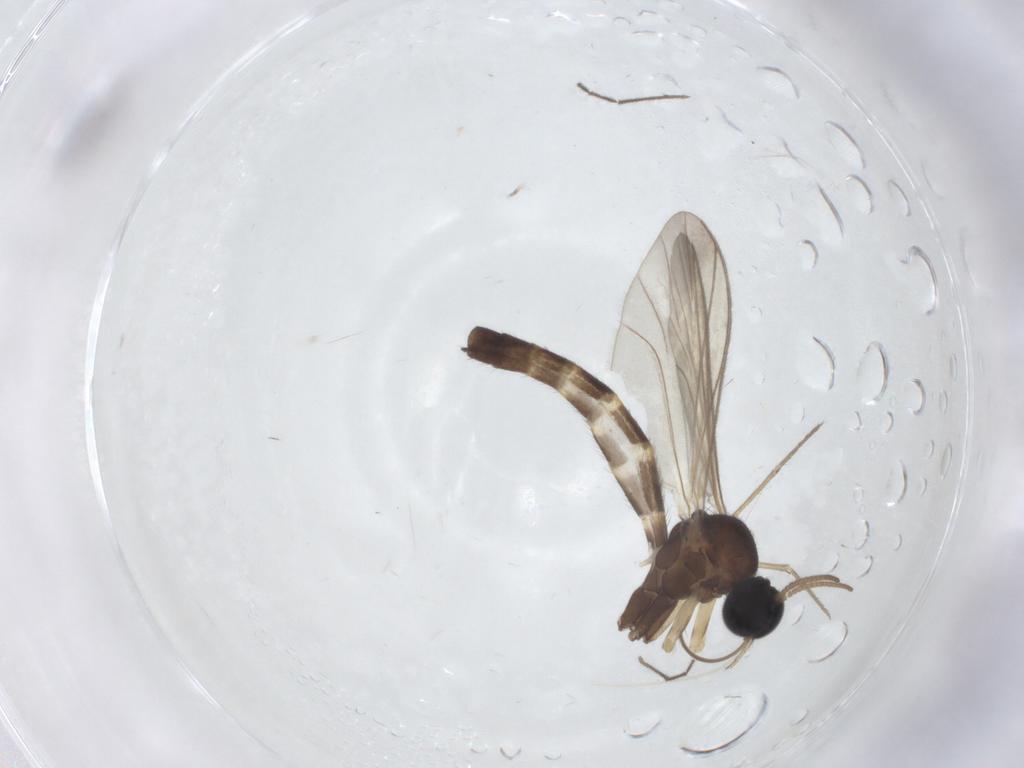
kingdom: Animalia
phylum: Arthropoda
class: Insecta
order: Diptera
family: Keroplatidae
